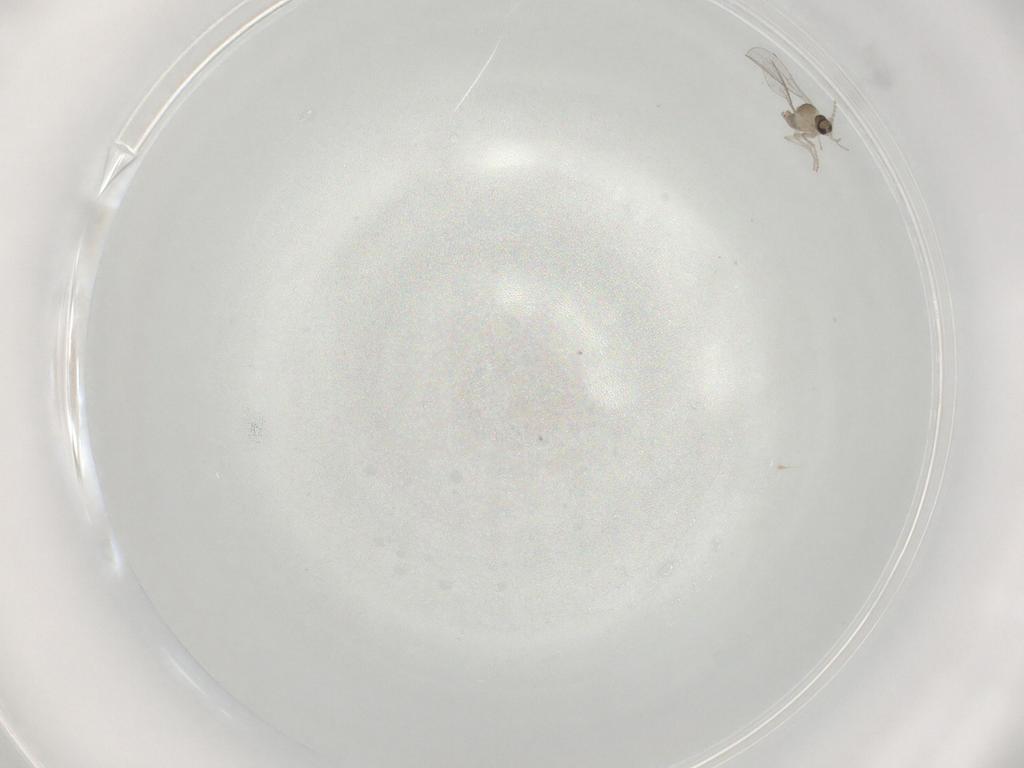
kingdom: Animalia
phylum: Arthropoda
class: Insecta
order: Diptera
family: Cecidomyiidae
